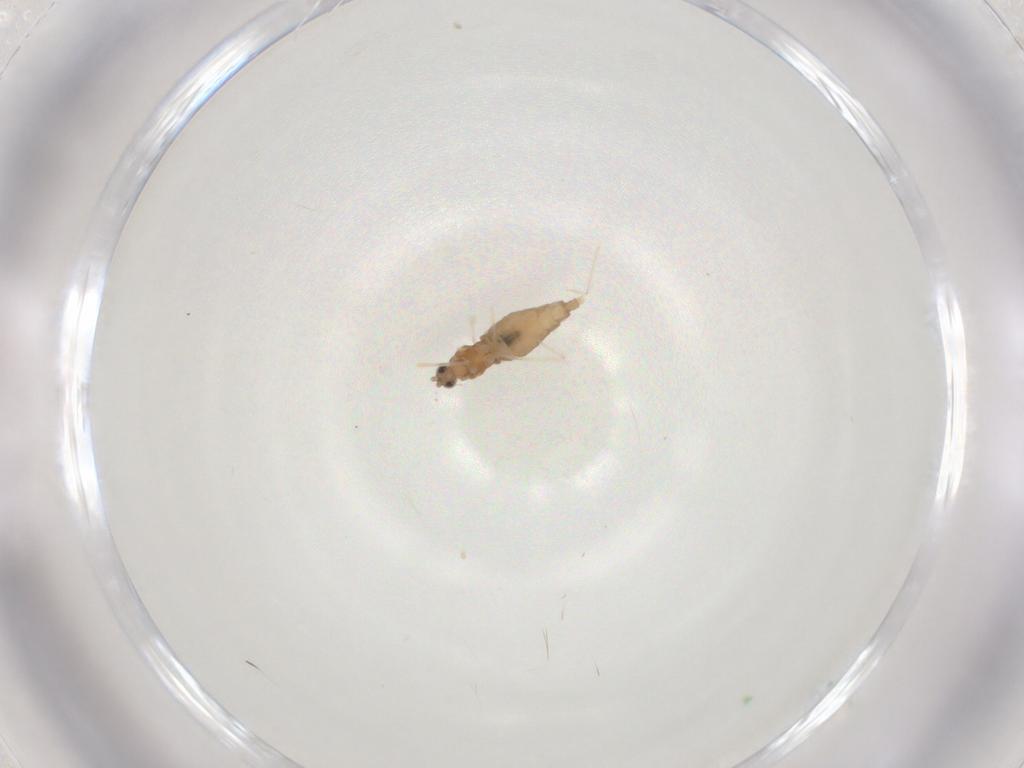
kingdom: Animalia
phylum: Arthropoda
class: Insecta
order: Diptera
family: Cecidomyiidae
